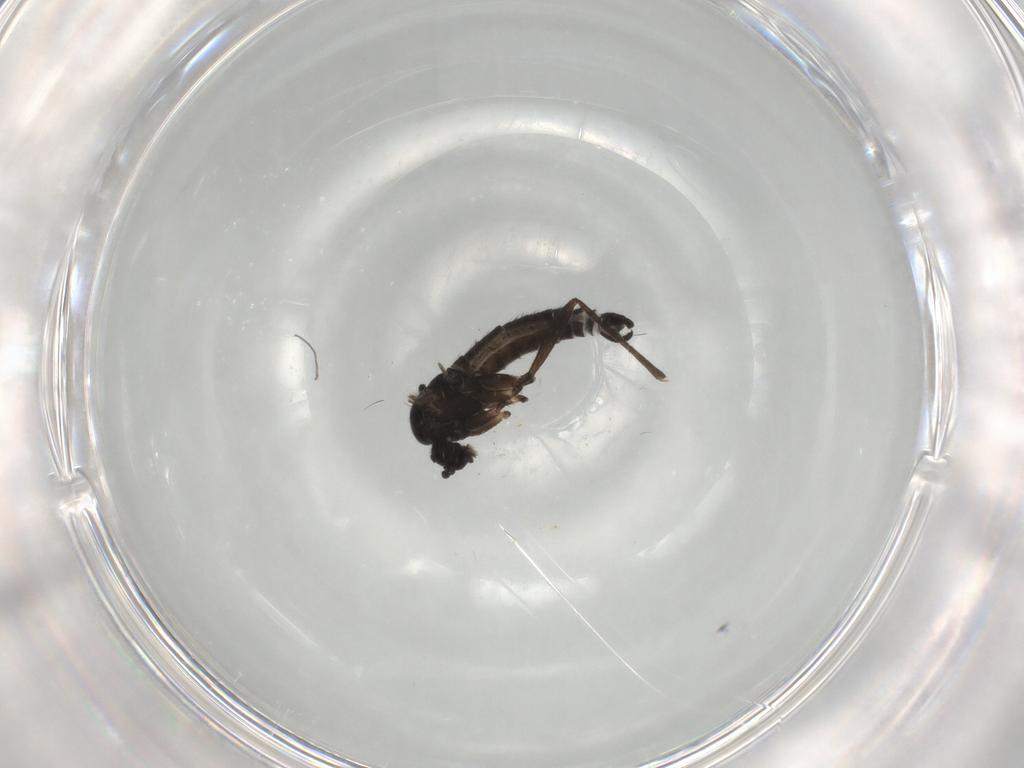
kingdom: Animalia
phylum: Arthropoda
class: Insecta
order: Diptera
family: Sciaridae
